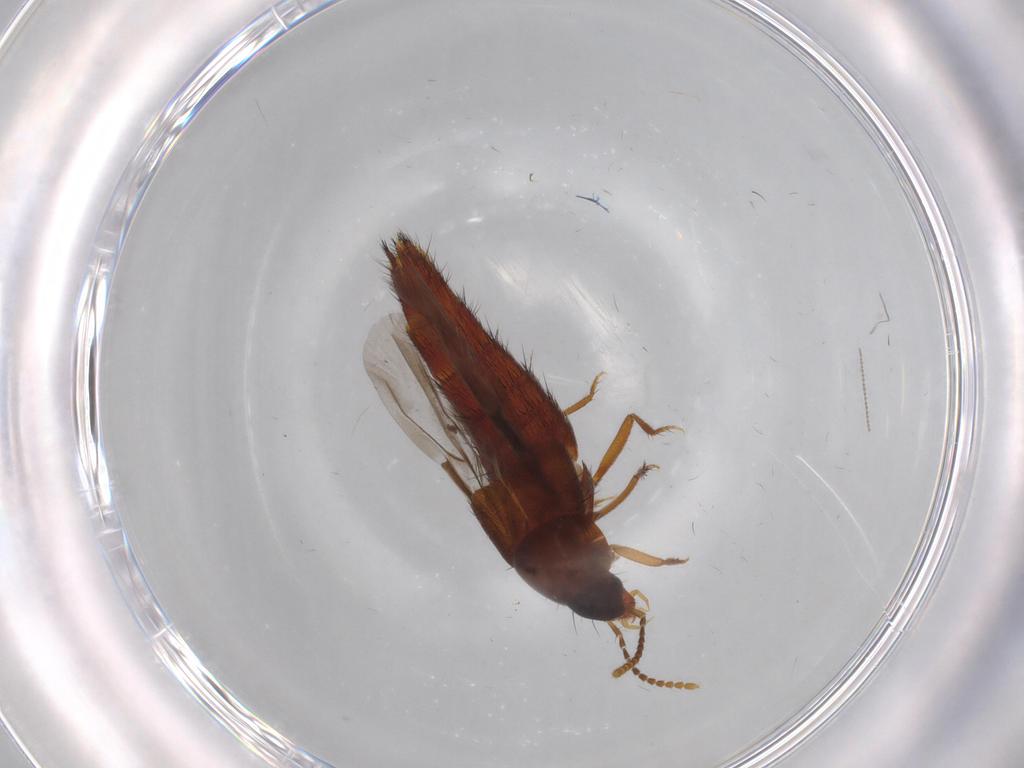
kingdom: Animalia
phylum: Arthropoda
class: Insecta
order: Coleoptera
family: Staphylinidae
